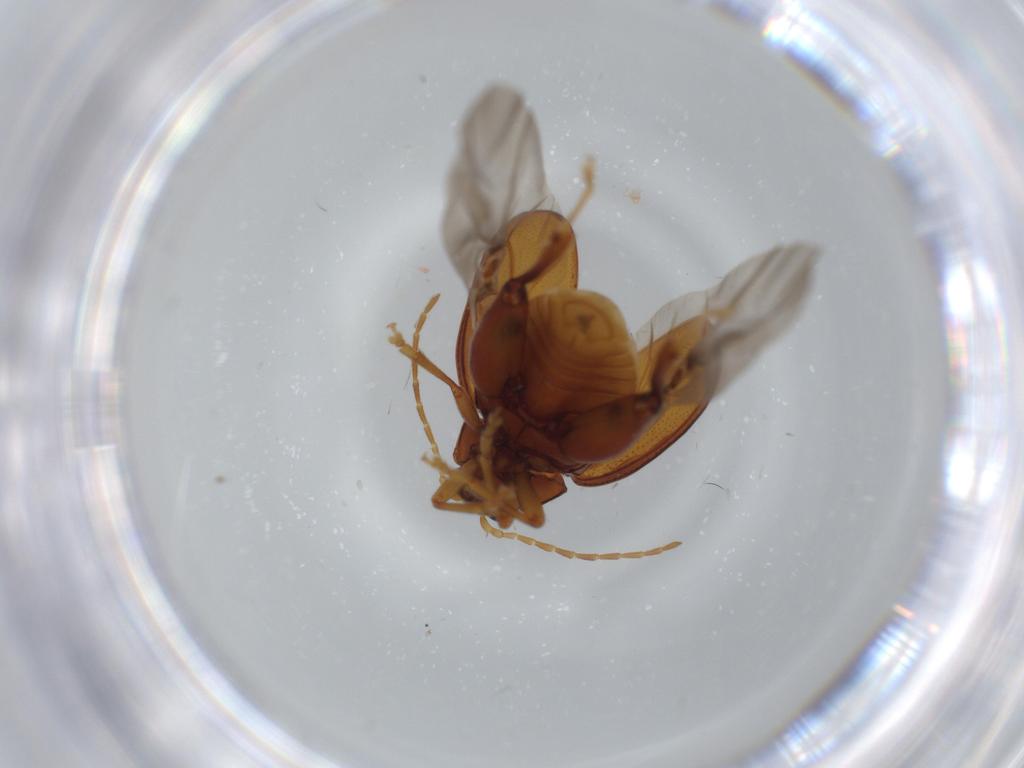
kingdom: Animalia
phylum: Arthropoda
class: Insecta
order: Coleoptera
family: Chrysomelidae
